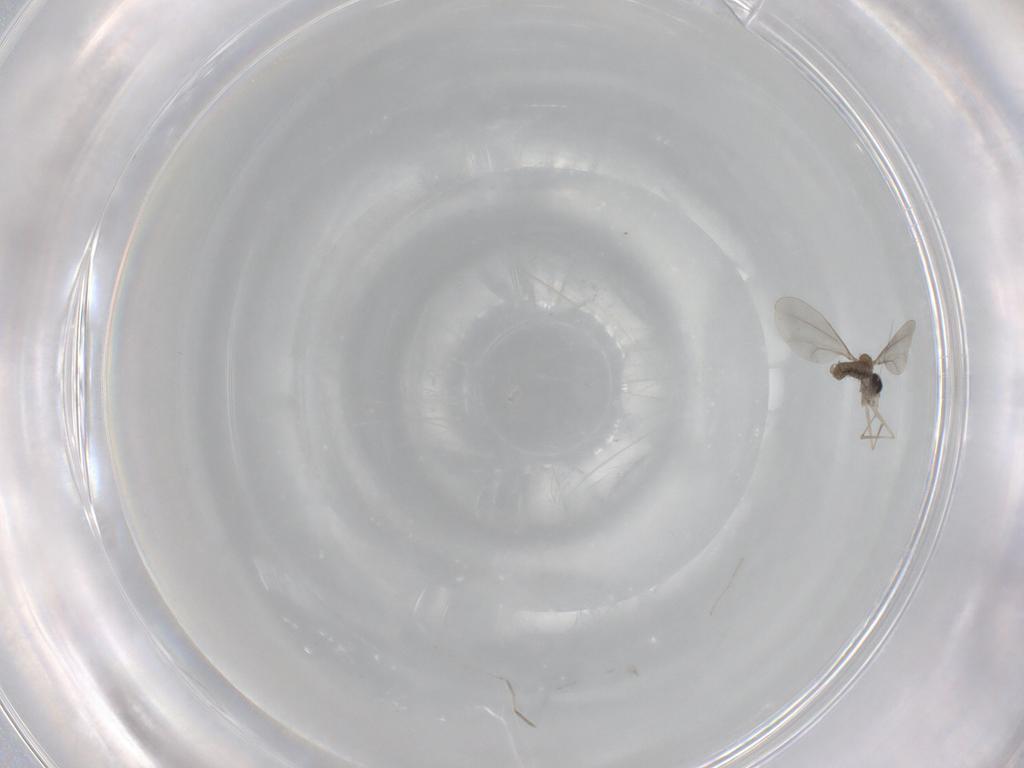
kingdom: Animalia
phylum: Arthropoda
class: Insecta
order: Diptera
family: Cecidomyiidae
